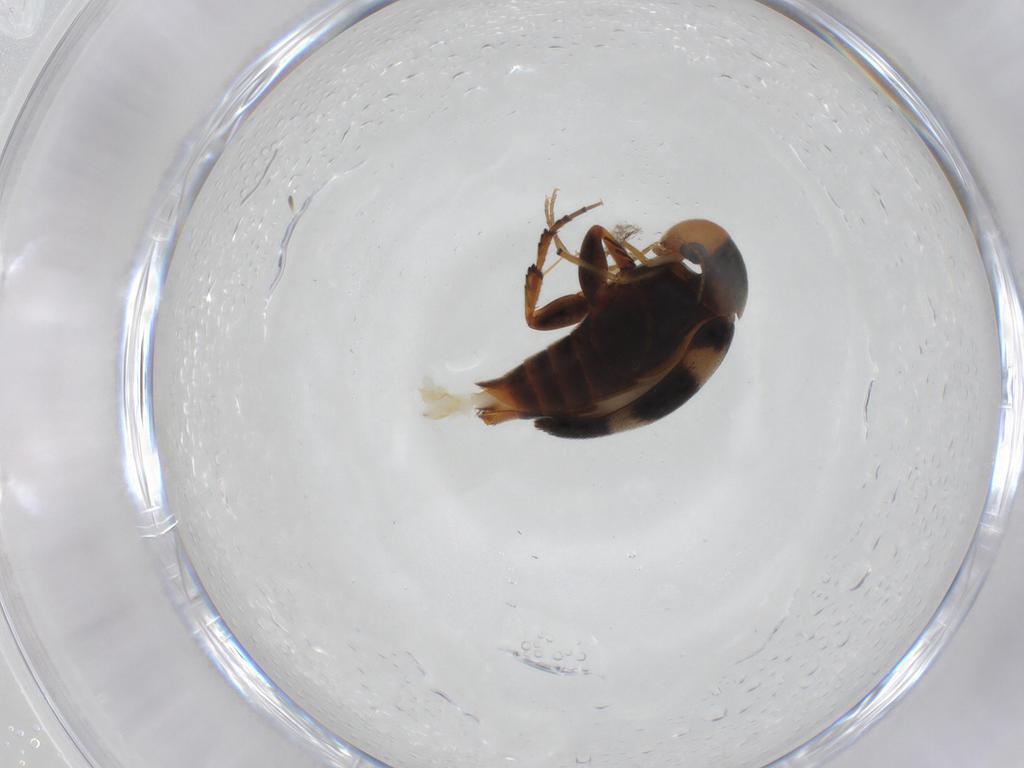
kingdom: Animalia
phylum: Arthropoda
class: Insecta
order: Coleoptera
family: Mordellidae
